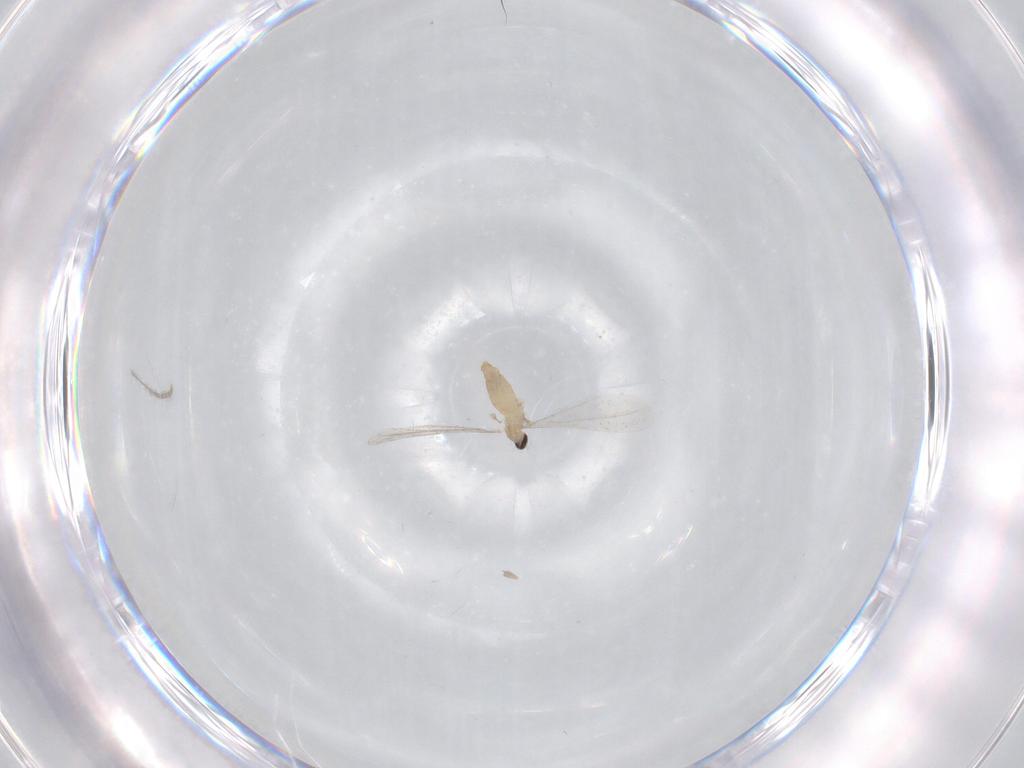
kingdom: Animalia
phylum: Arthropoda
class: Insecta
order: Diptera
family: Cecidomyiidae
